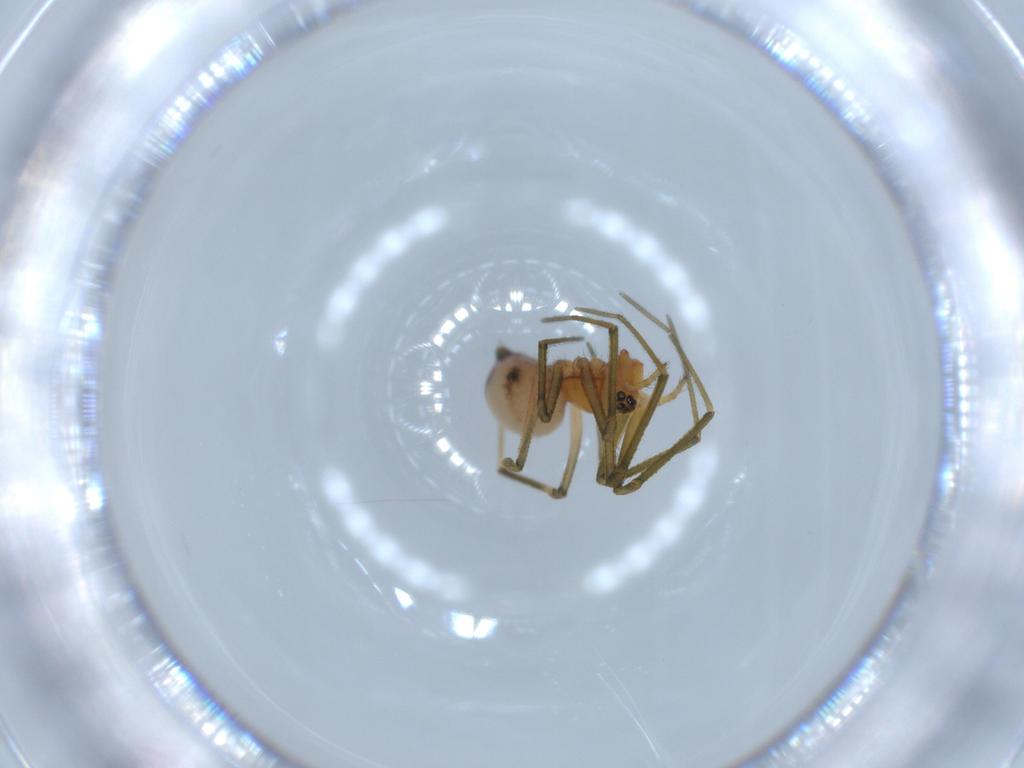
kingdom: Animalia
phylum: Arthropoda
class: Arachnida
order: Araneae
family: Linyphiidae
